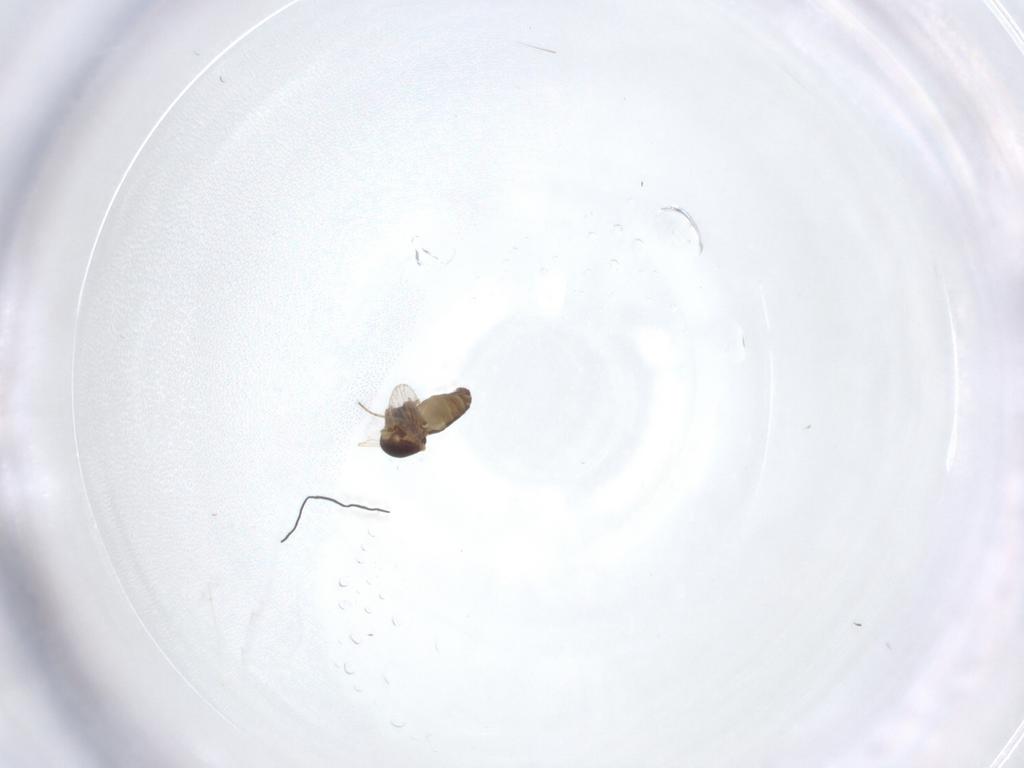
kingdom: Animalia
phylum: Arthropoda
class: Insecta
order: Diptera
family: Ceratopogonidae
